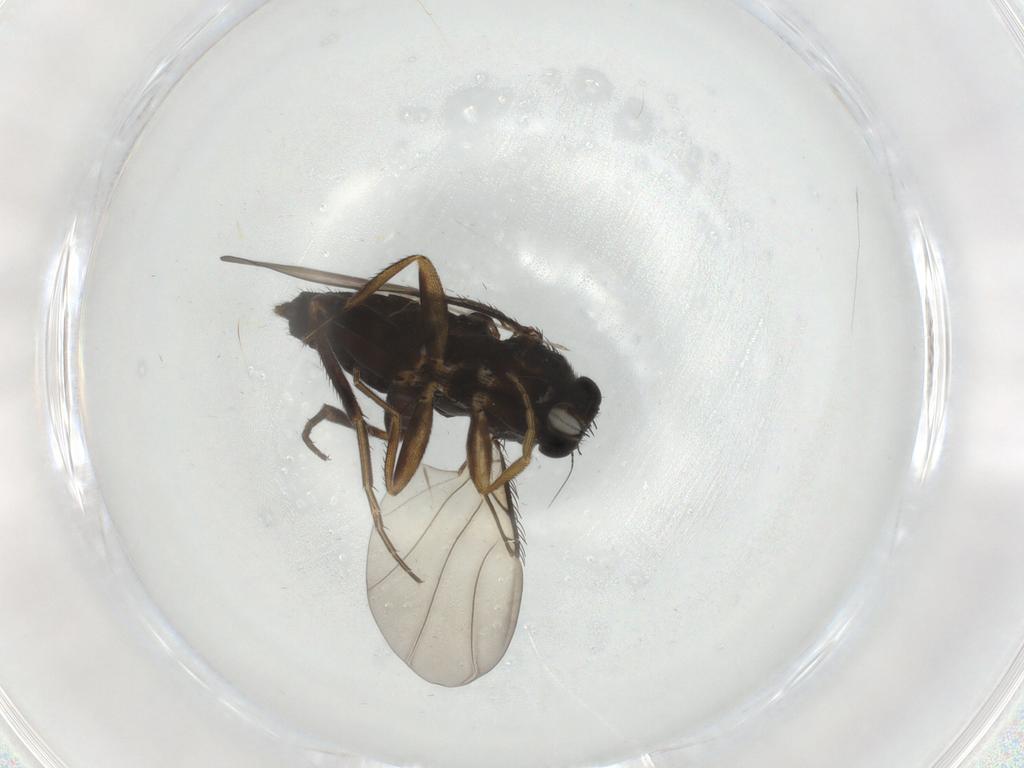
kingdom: Animalia
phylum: Arthropoda
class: Insecta
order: Diptera
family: Phoridae
